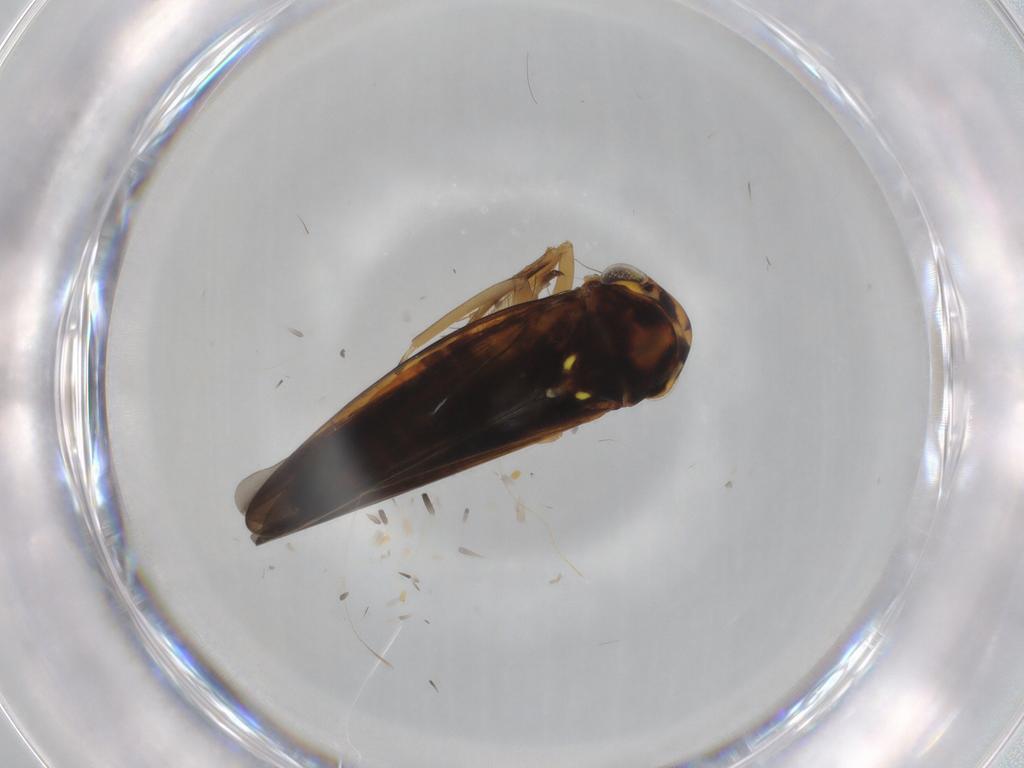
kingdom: Animalia
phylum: Arthropoda
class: Insecta
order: Hemiptera
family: Cicadellidae
